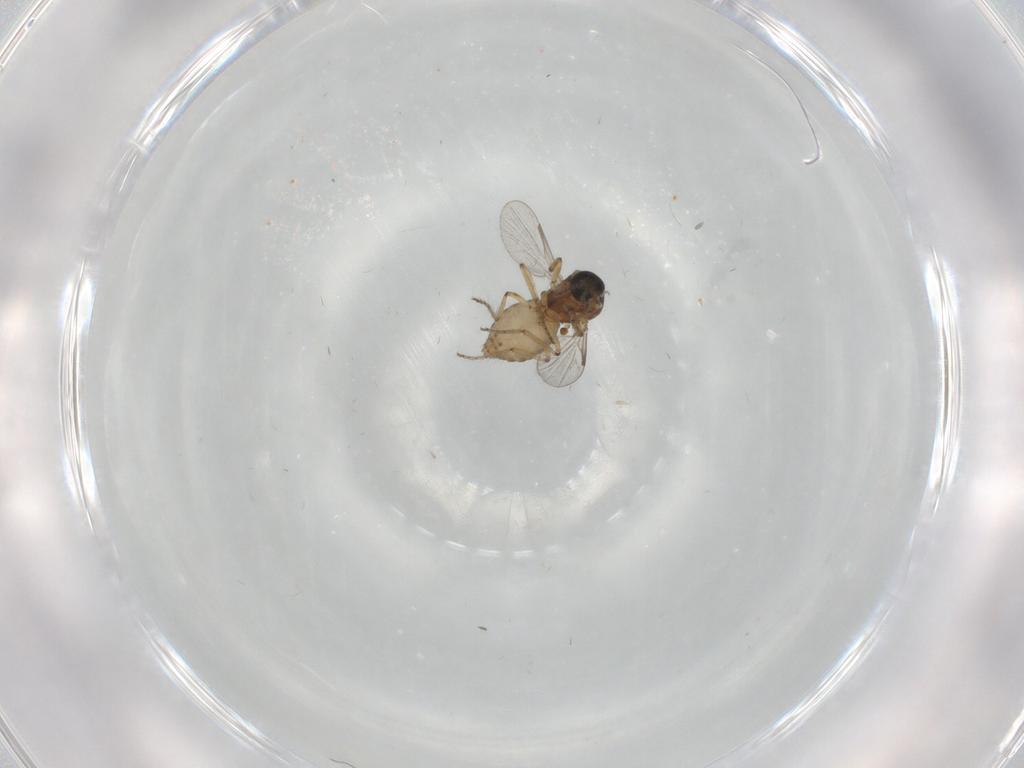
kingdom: Animalia
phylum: Arthropoda
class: Insecta
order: Diptera
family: Ceratopogonidae
